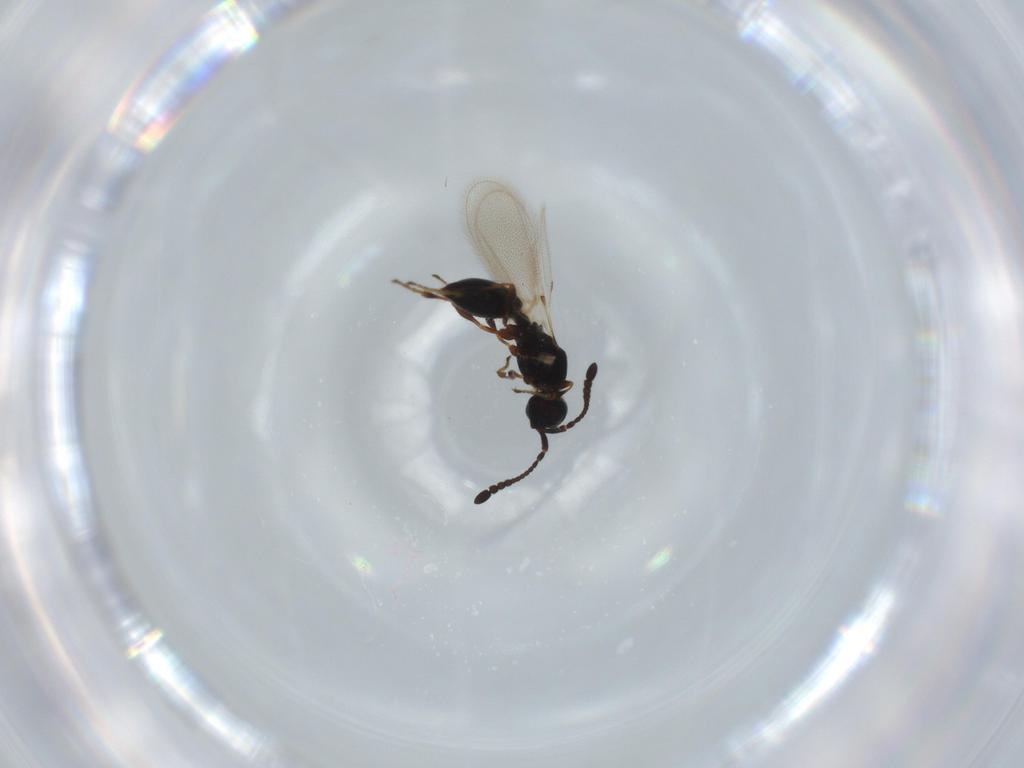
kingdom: Animalia
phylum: Arthropoda
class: Insecta
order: Hymenoptera
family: Diapriidae
